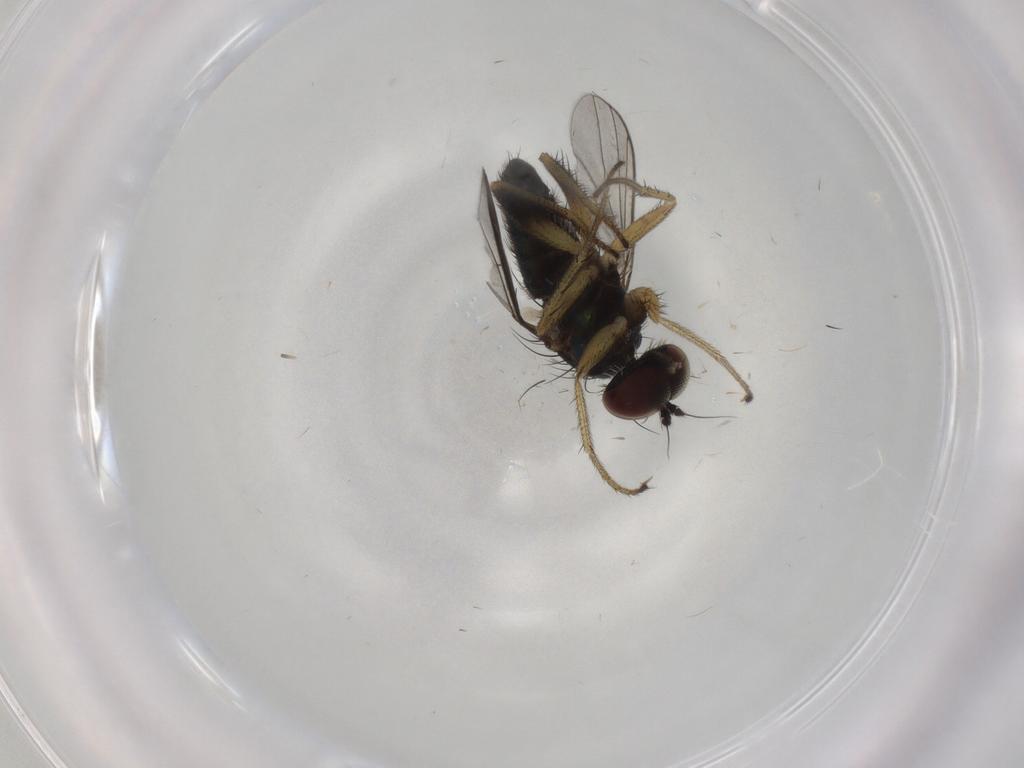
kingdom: Animalia
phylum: Arthropoda
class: Insecta
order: Diptera
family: Dolichopodidae
